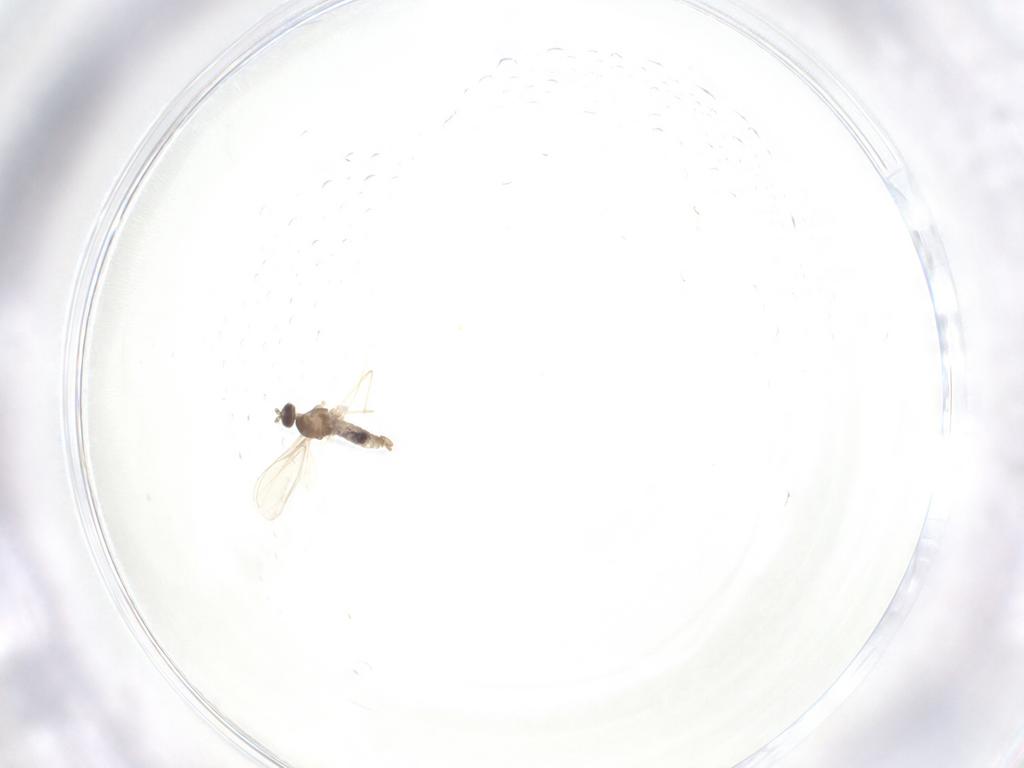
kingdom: Animalia
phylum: Arthropoda
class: Insecta
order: Diptera
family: Cecidomyiidae
